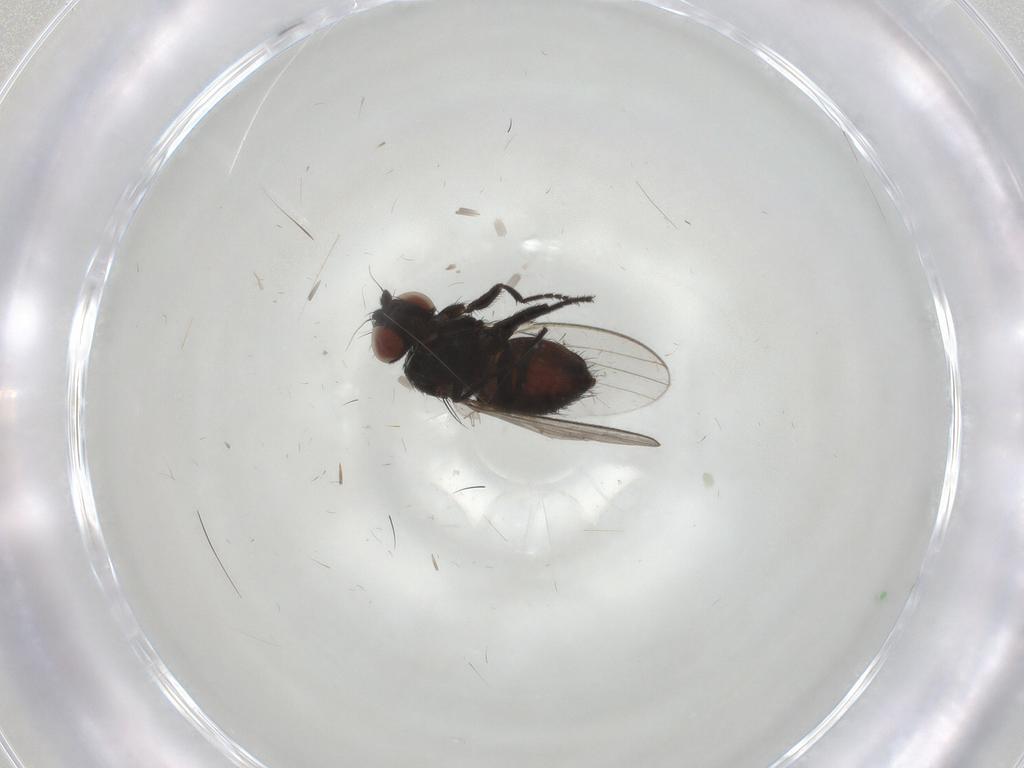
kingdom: Animalia
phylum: Arthropoda
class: Insecta
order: Diptera
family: Milichiidae
